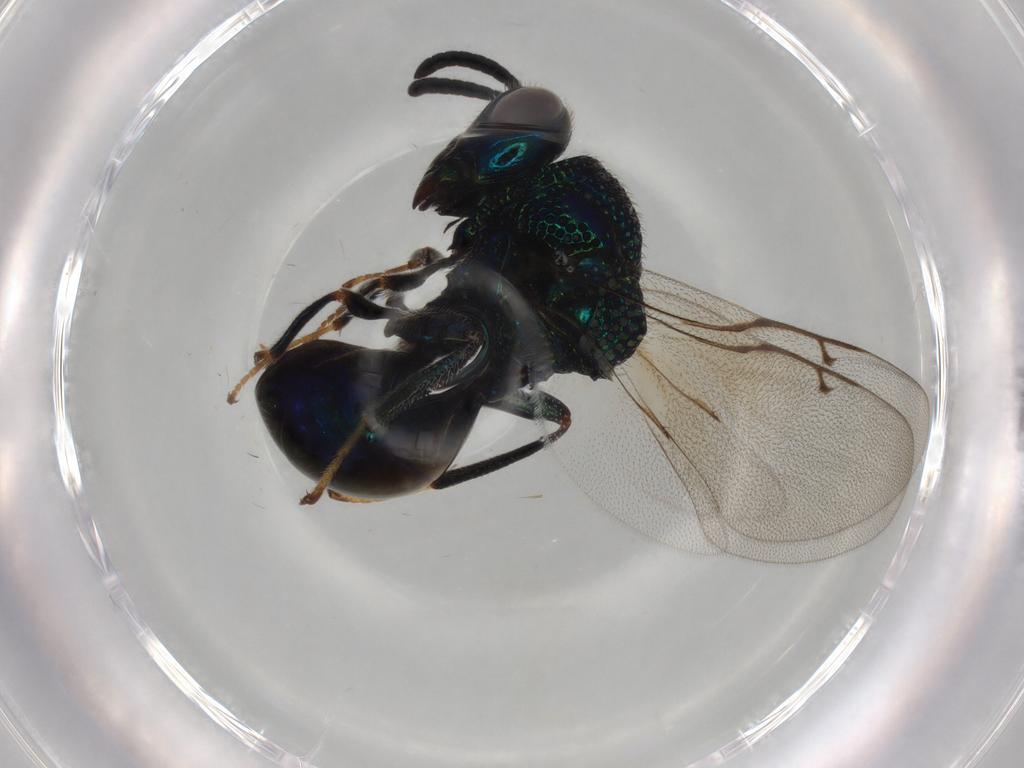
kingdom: Animalia
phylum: Arthropoda
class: Insecta
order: Hymenoptera
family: Perilampidae
